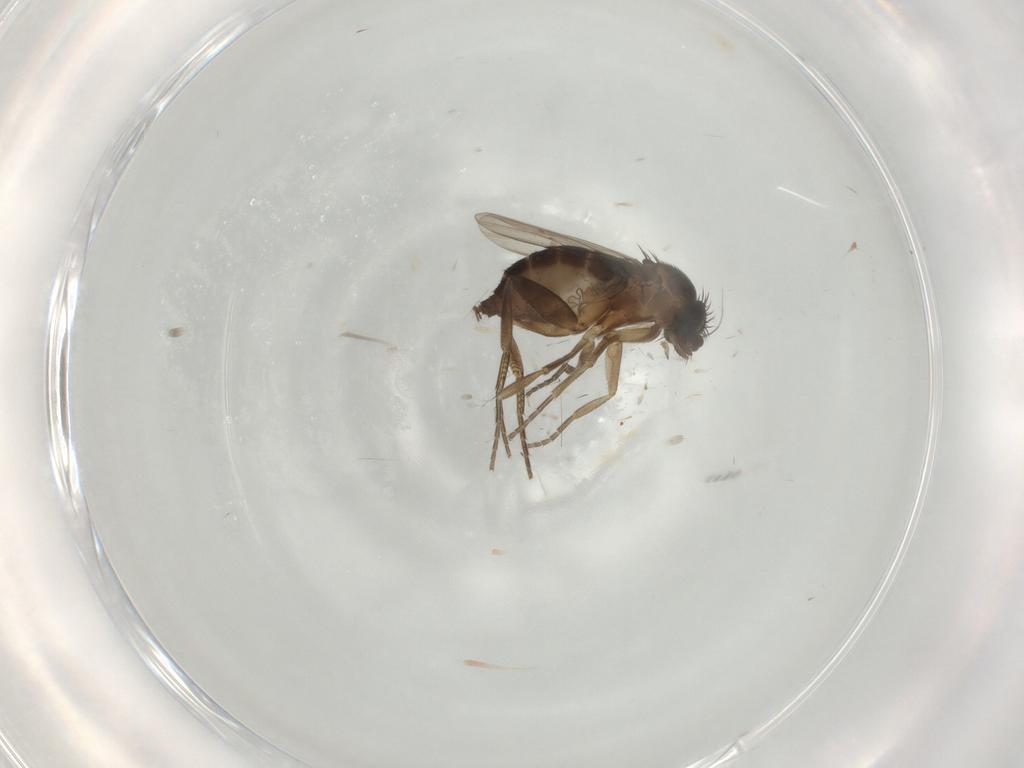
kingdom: Animalia
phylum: Arthropoda
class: Insecta
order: Diptera
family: Phoridae
